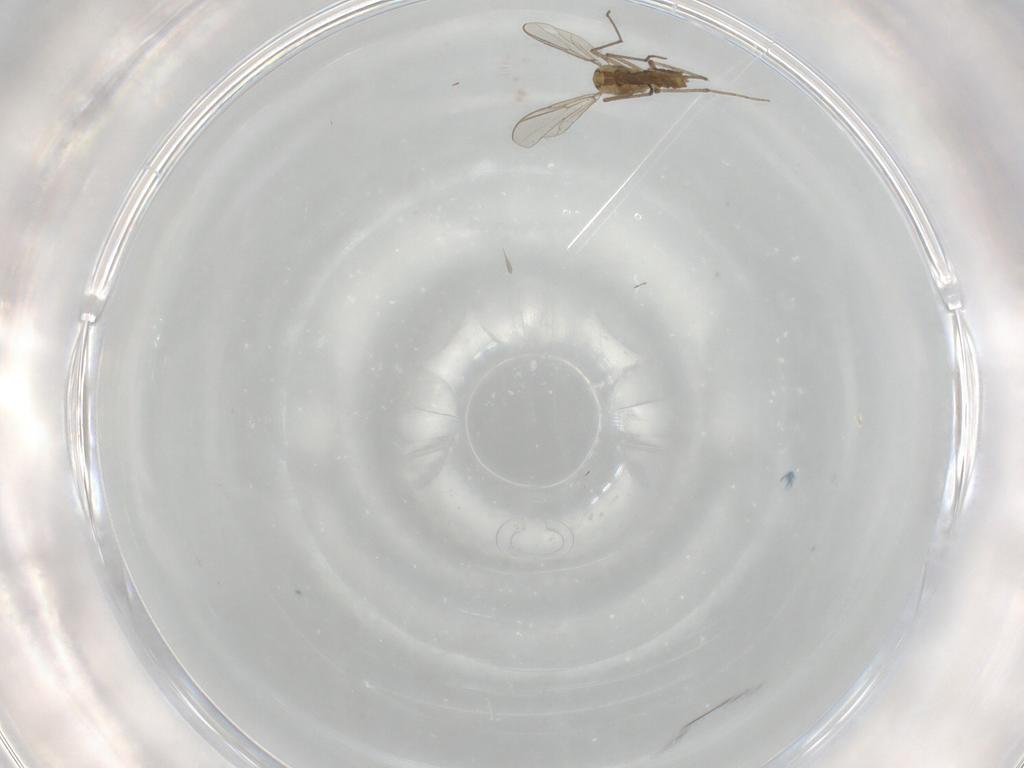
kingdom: Animalia
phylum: Arthropoda
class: Insecta
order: Diptera
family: Chironomidae
